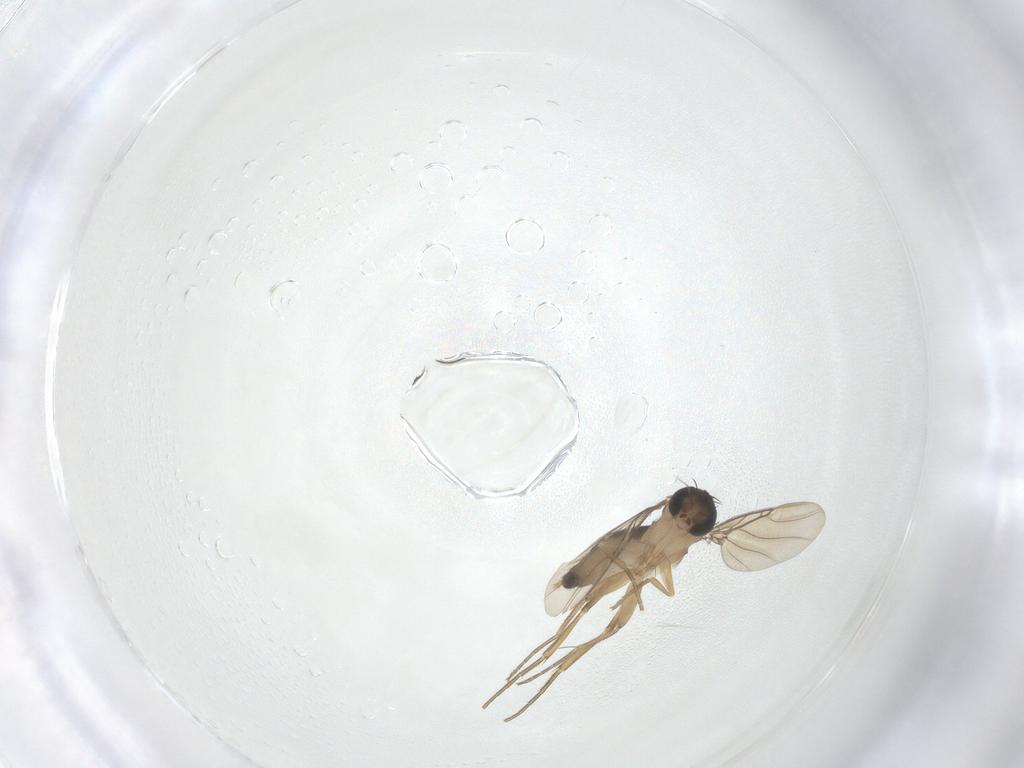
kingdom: Animalia
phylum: Arthropoda
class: Insecta
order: Diptera
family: Phoridae
